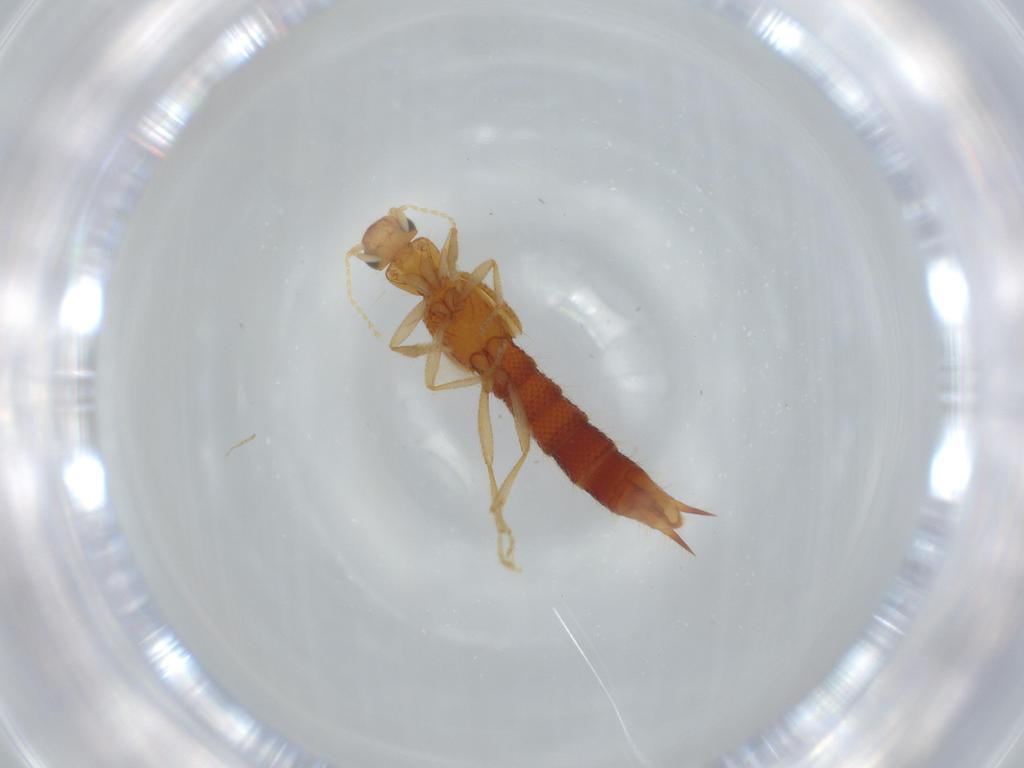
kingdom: Animalia
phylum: Arthropoda
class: Insecta
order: Coleoptera
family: Staphylinidae
